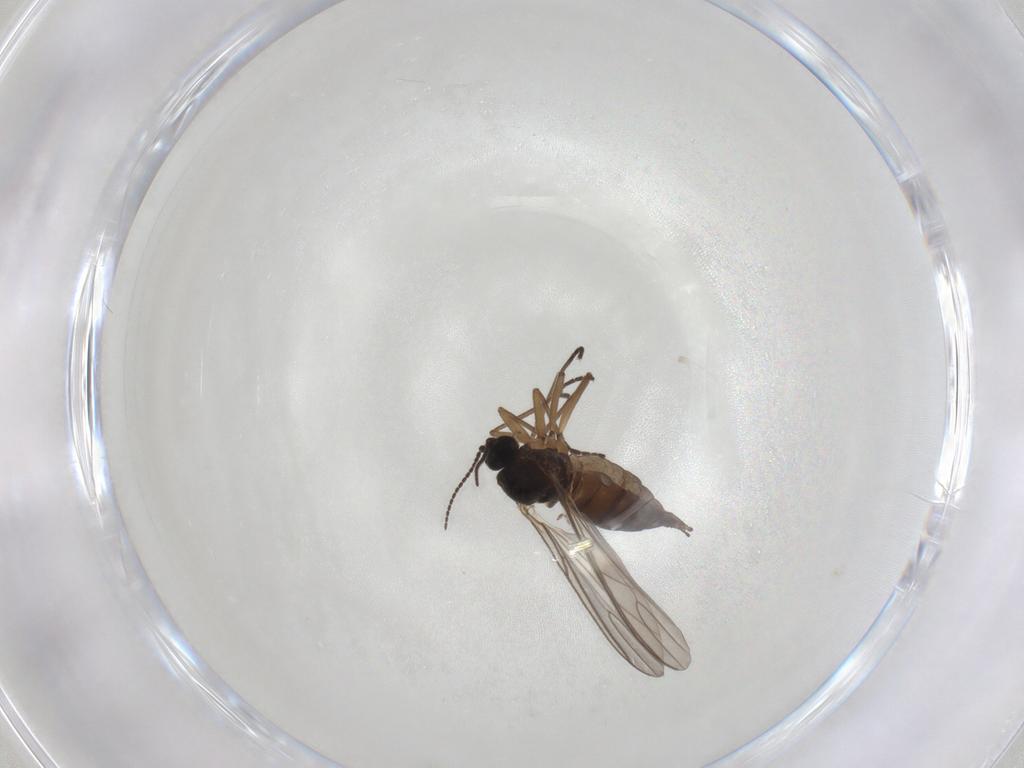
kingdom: Animalia
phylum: Arthropoda
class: Insecta
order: Diptera
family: Sciaridae
